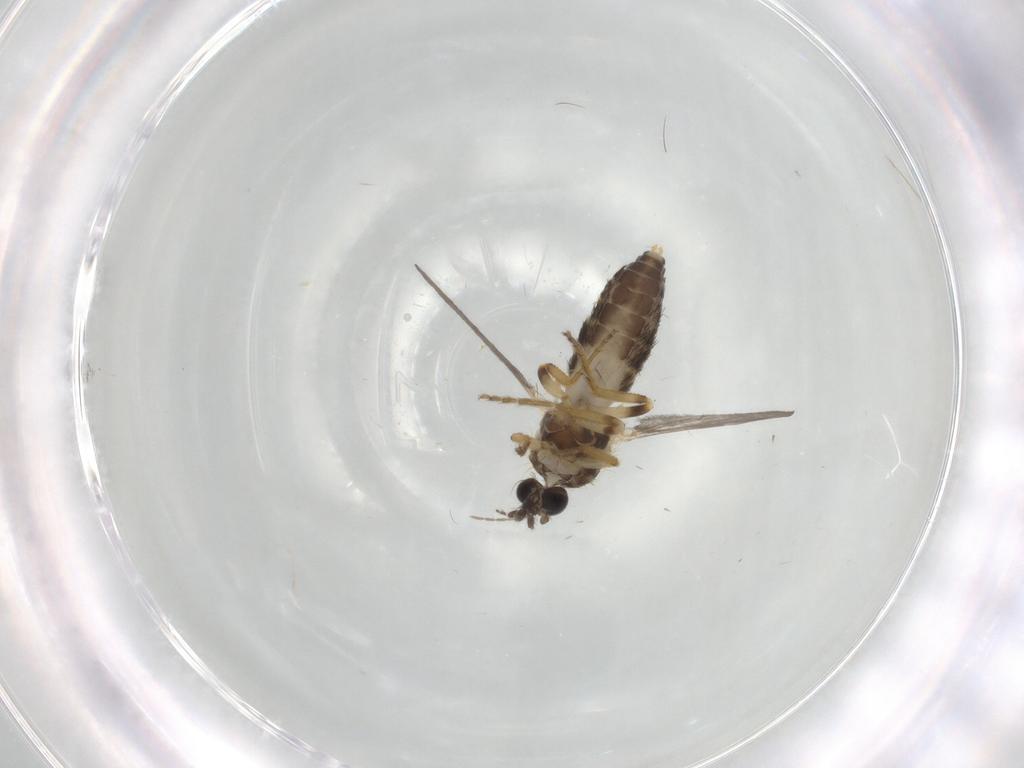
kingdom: Animalia
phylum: Arthropoda
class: Insecta
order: Diptera
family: Ceratopogonidae
